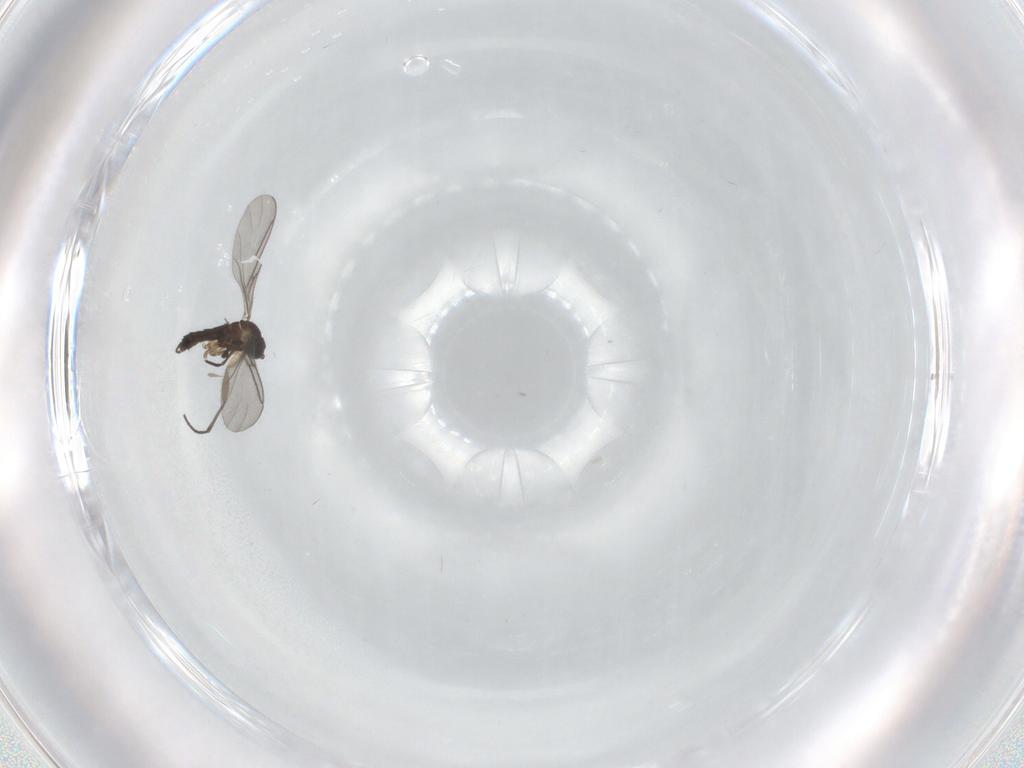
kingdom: Animalia
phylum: Arthropoda
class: Insecta
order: Diptera
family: Sciaridae
